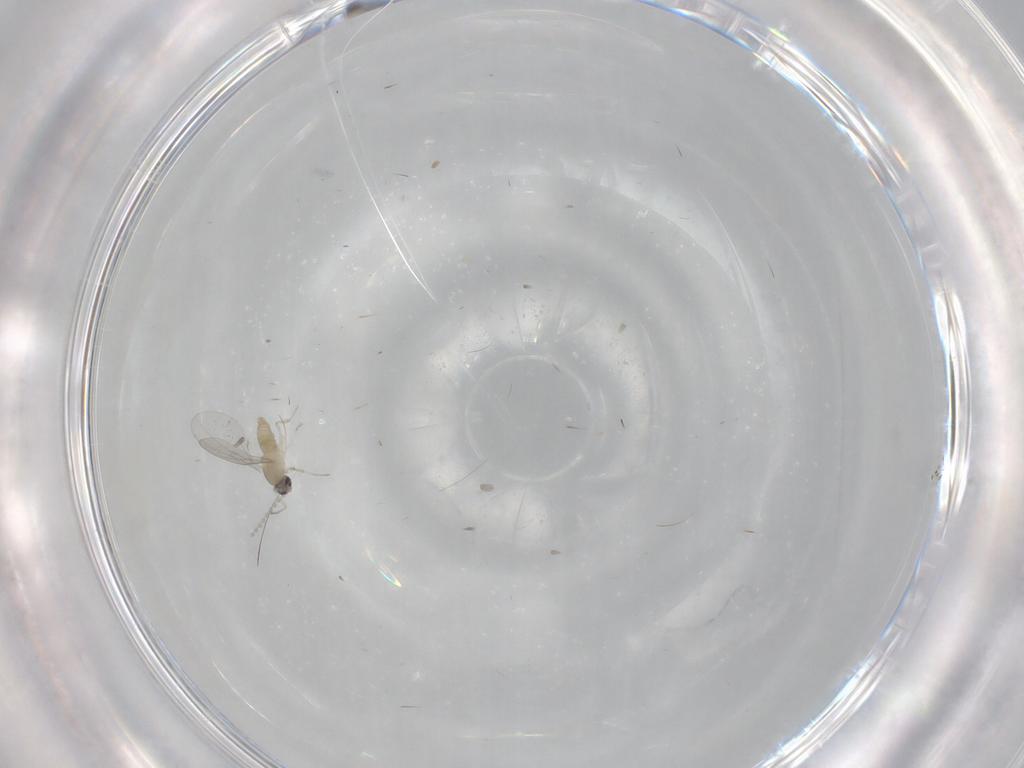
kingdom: Animalia
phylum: Arthropoda
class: Insecta
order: Diptera
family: Cecidomyiidae
